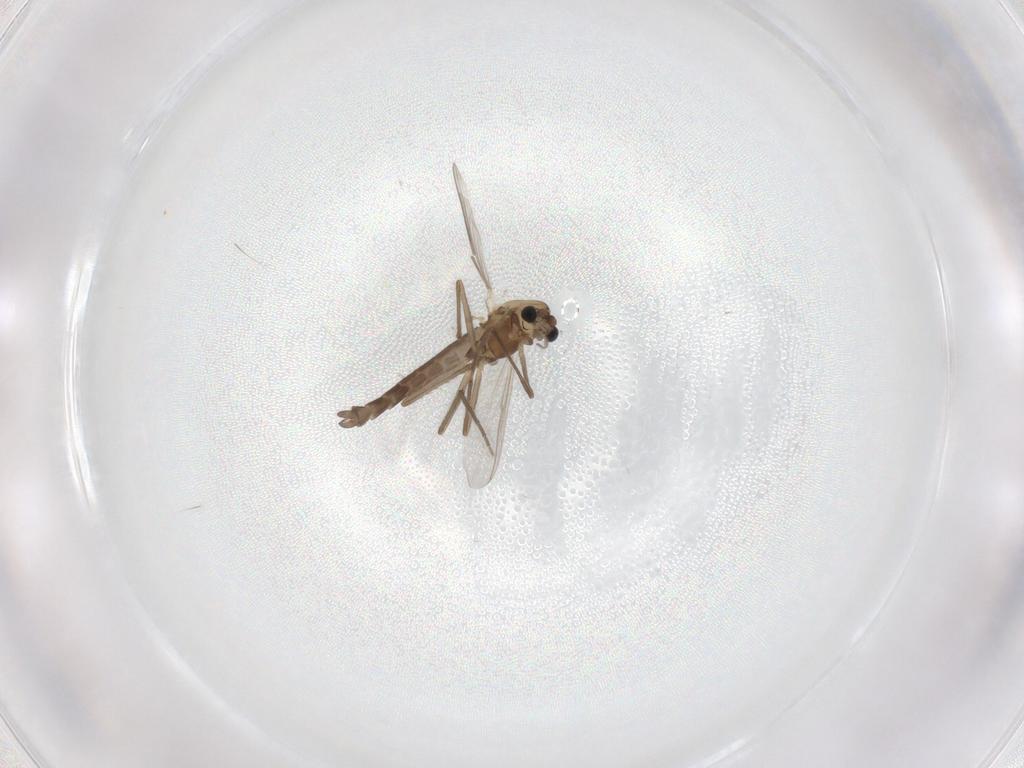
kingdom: Animalia
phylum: Arthropoda
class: Insecta
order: Diptera
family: Chironomidae
